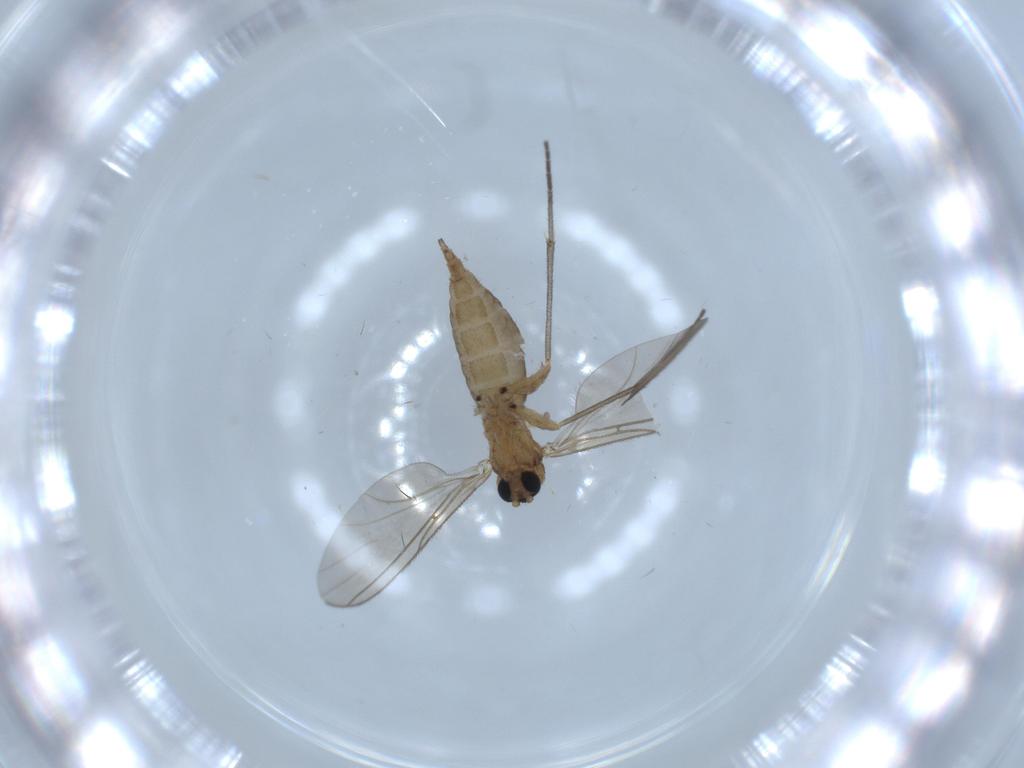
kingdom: Animalia
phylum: Arthropoda
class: Insecta
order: Diptera
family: Sciaridae
